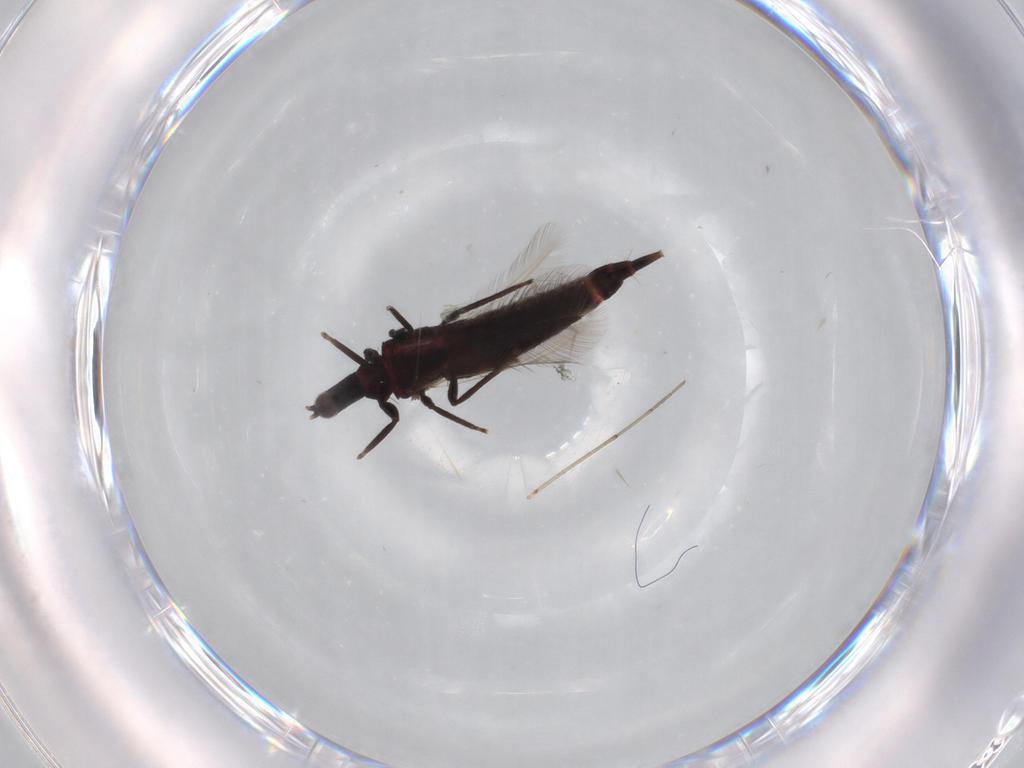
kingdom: Animalia
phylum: Arthropoda
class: Insecta
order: Thysanoptera
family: Phlaeothripidae
